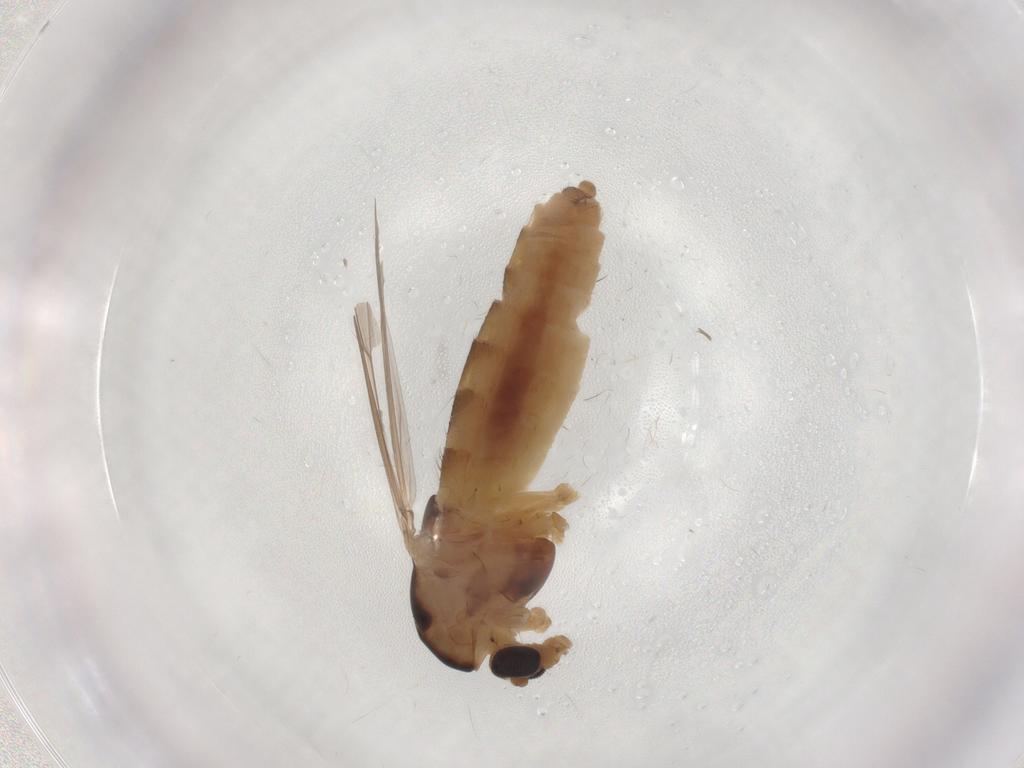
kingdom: Animalia
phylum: Arthropoda
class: Insecta
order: Diptera
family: Chironomidae
